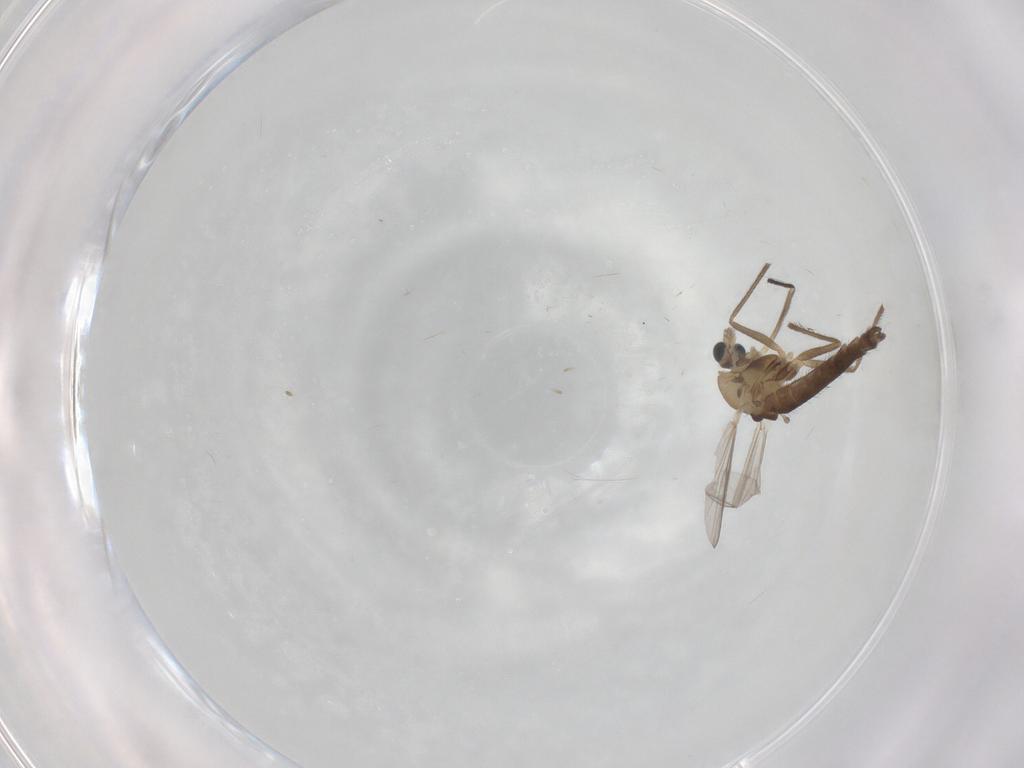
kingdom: Animalia
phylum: Arthropoda
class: Insecta
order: Diptera
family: Chironomidae
